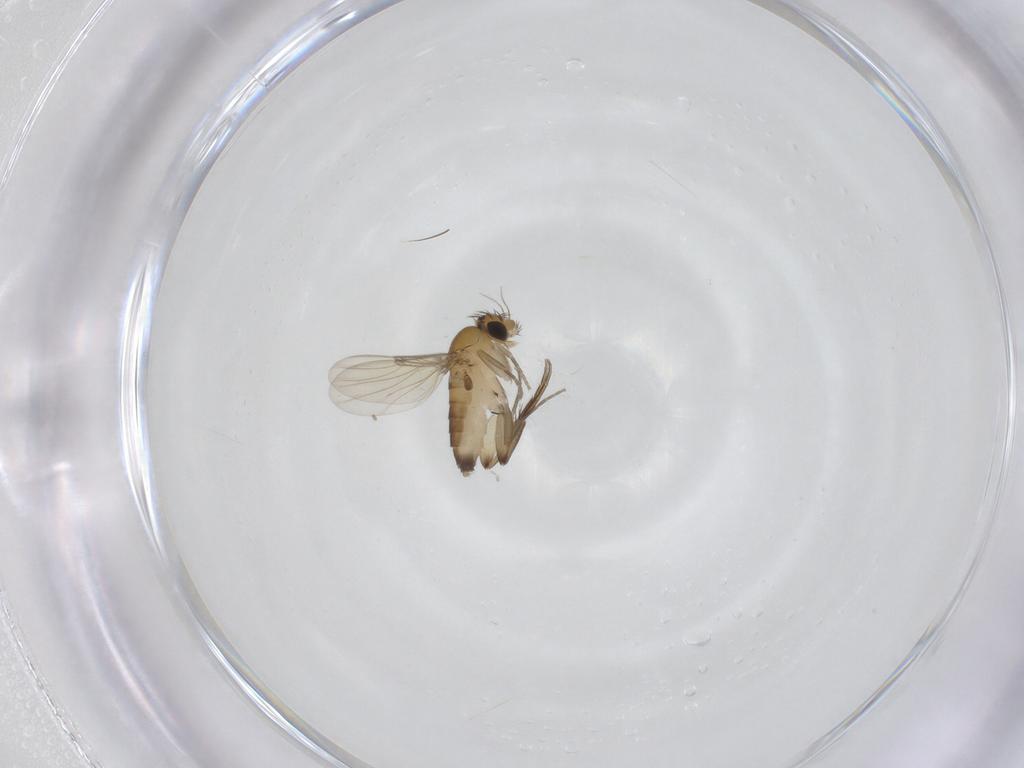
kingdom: Animalia
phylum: Arthropoda
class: Insecta
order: Diptera
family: Phoridae
